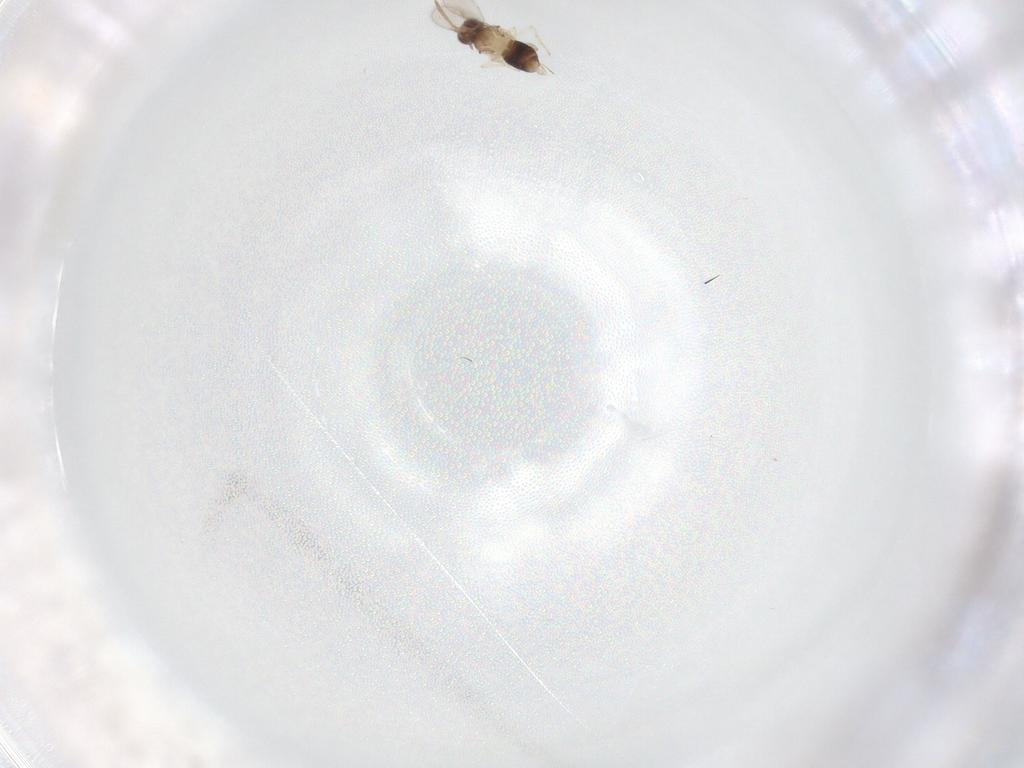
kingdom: Animalia
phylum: Arthropoda
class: Insecta
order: Hymenoptera
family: Aphelinidae
